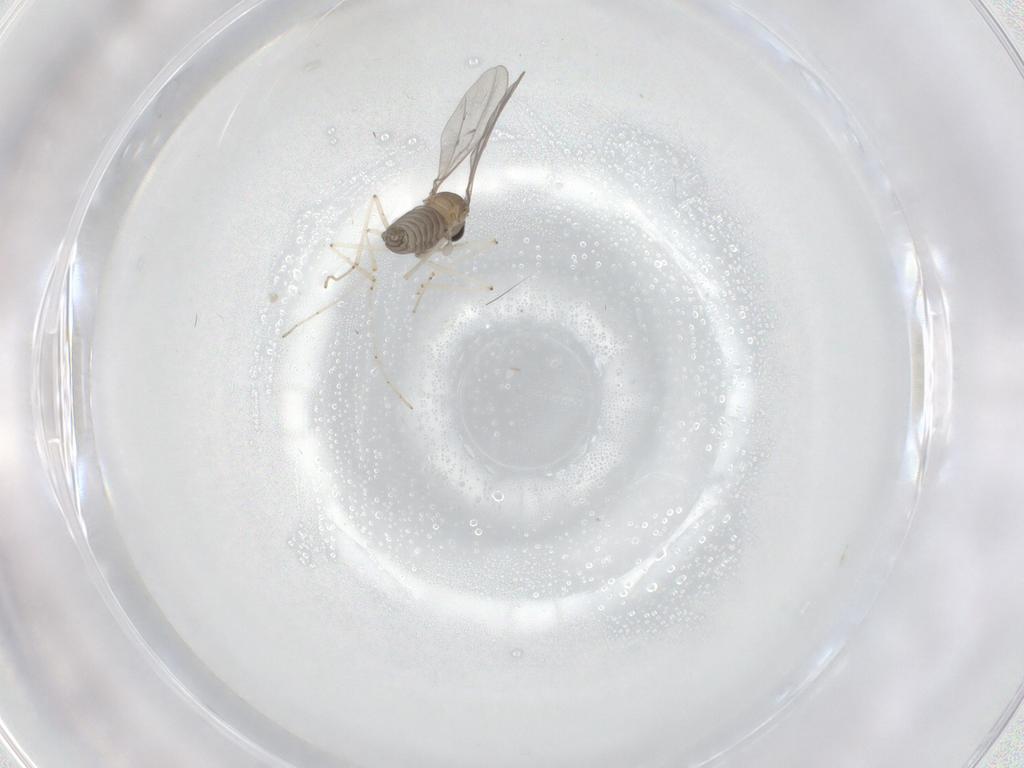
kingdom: Animalia
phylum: Arthropoda
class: Insecta
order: Diptera
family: Cecidomyiidae
